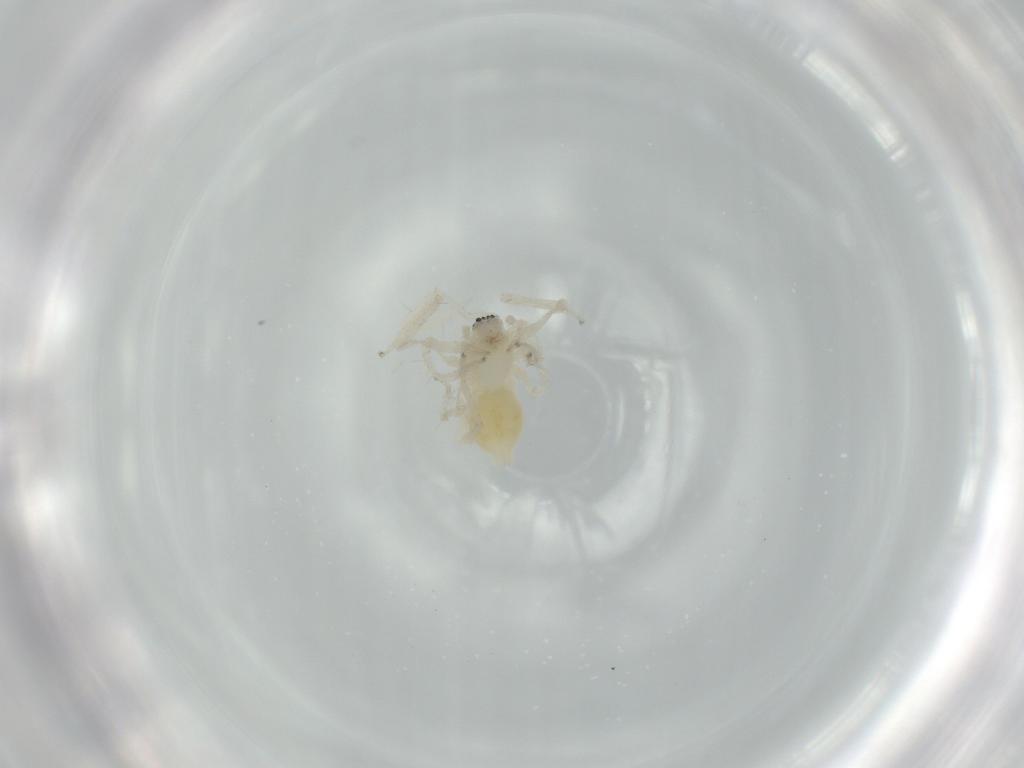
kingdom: Animalia
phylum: Arthropoda
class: Arachnida
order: Araneae
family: Anyphaenidae
